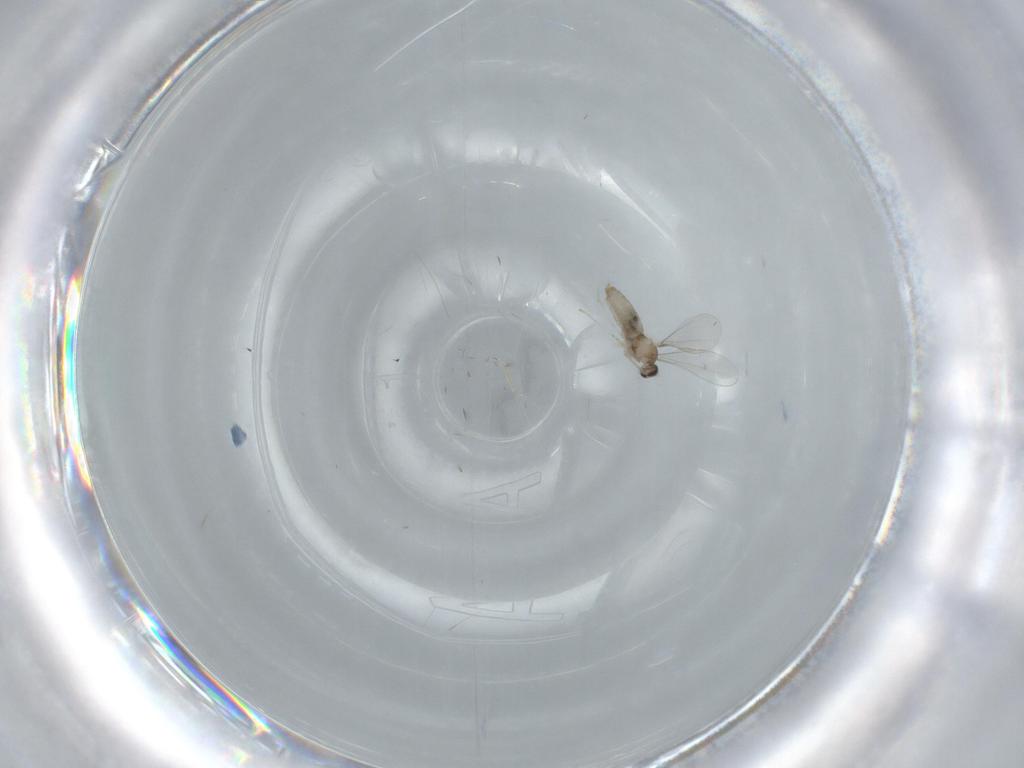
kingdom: Animalia
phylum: Arthropoda
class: Insecta
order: Diptera
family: Cecidomyiidae
